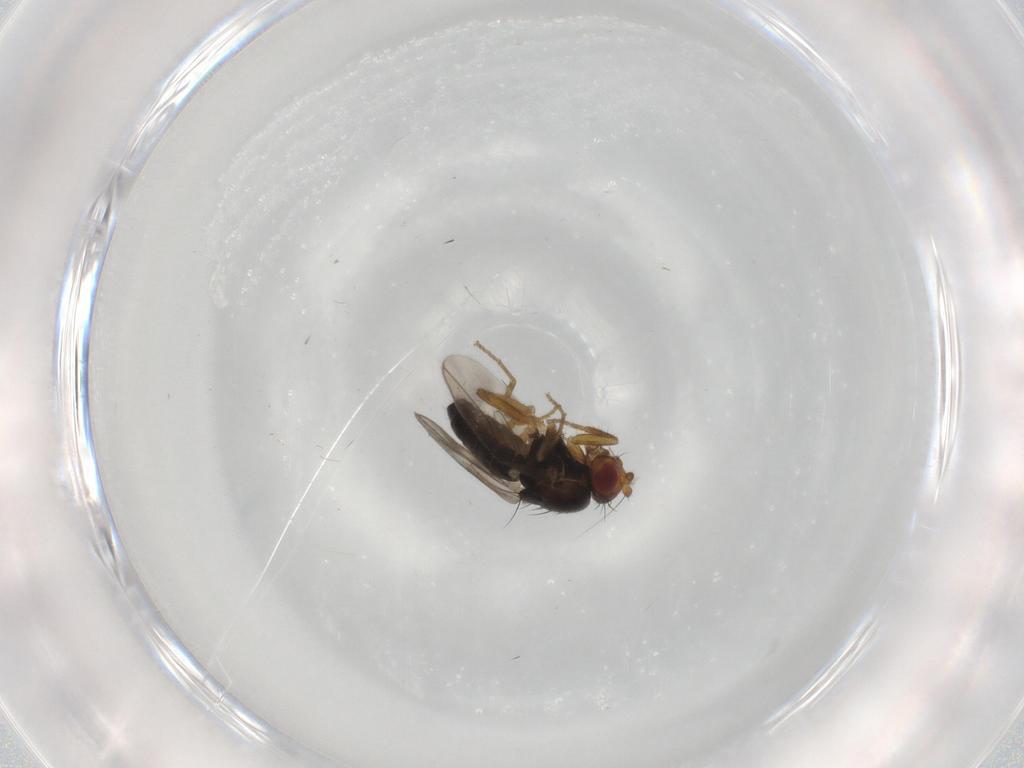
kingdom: Animalia
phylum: Arthropoda
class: Insecta
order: Diptera
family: Sphaeroceridae
